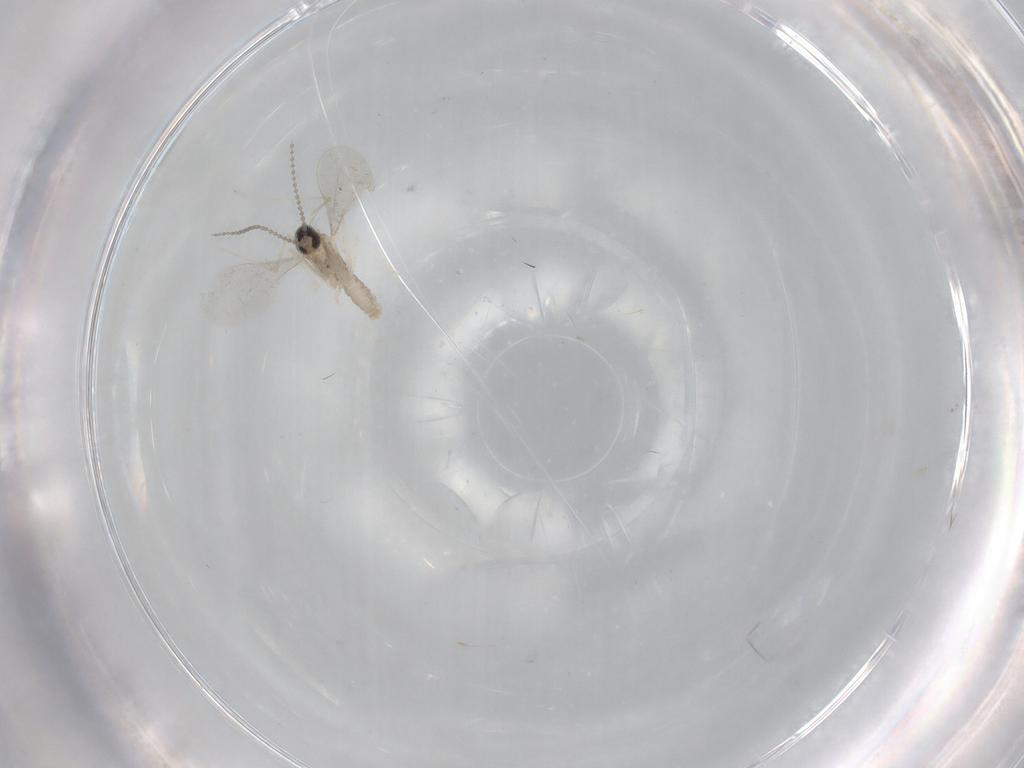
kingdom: Animalia
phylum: Arthropoda
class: Insecta
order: Diptera
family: Cecidomyiidae
